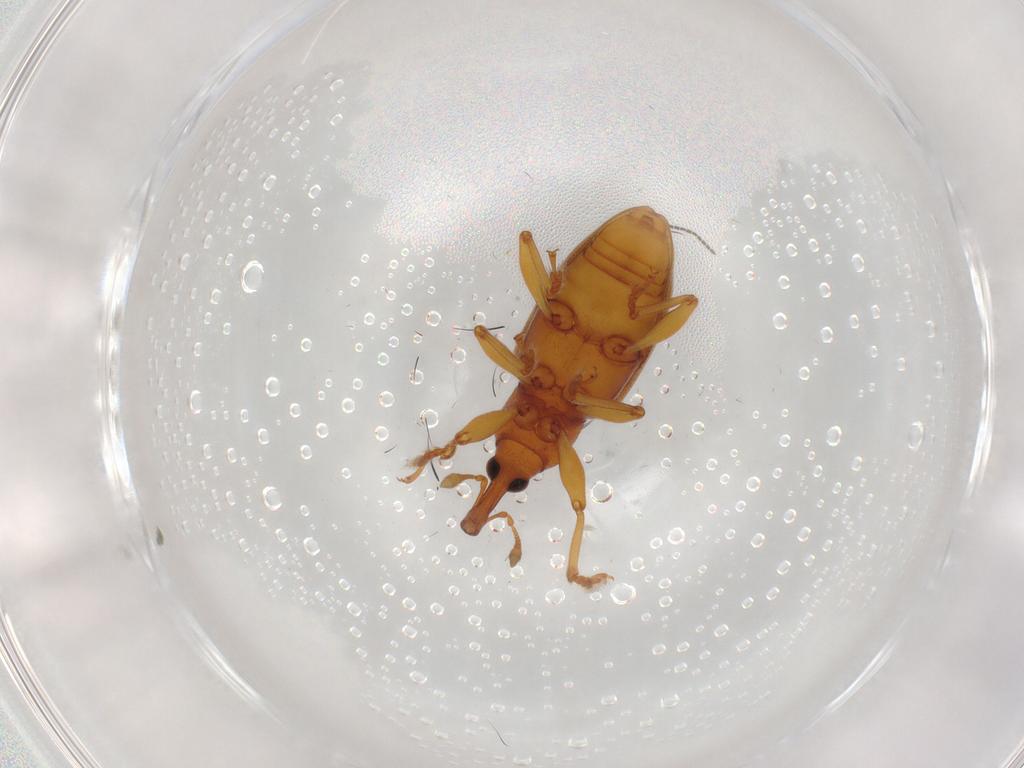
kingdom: Animalia
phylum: Arthropoda
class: Insecta
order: Coleoptera
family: Curculionidae
